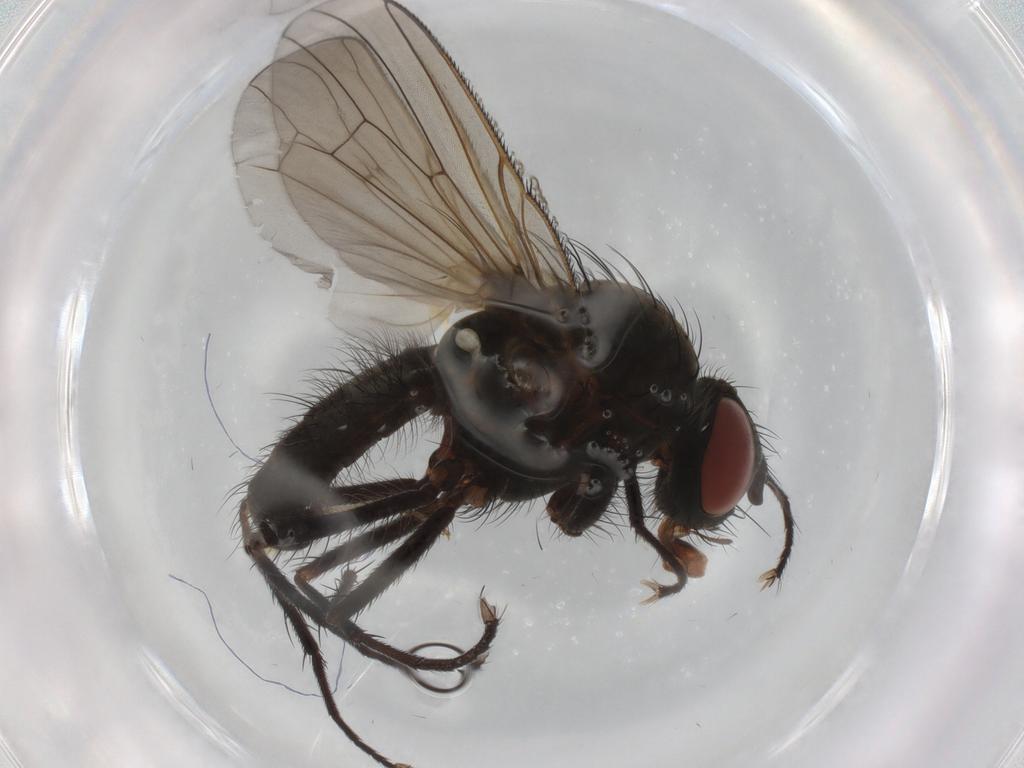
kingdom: Animalia
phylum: Arthropoda
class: Insecta
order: Diptera
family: Anthomyiidae
